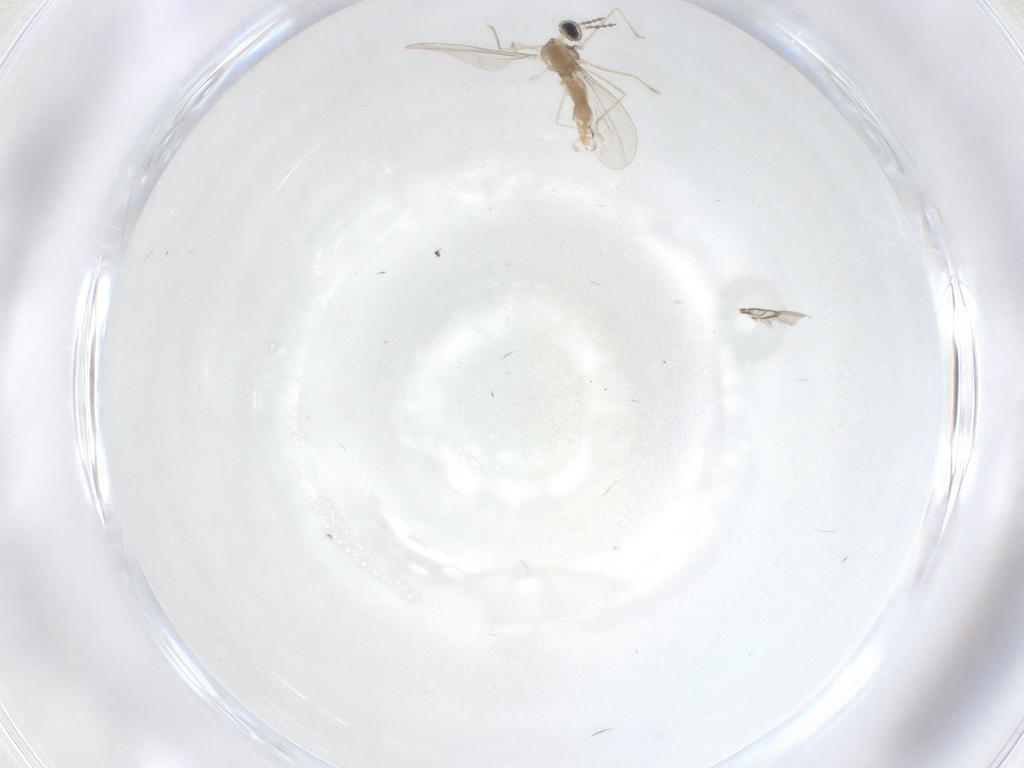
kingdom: Animalia
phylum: Arthropoda
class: Insecta
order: Diptera
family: Cecidomyiidae
